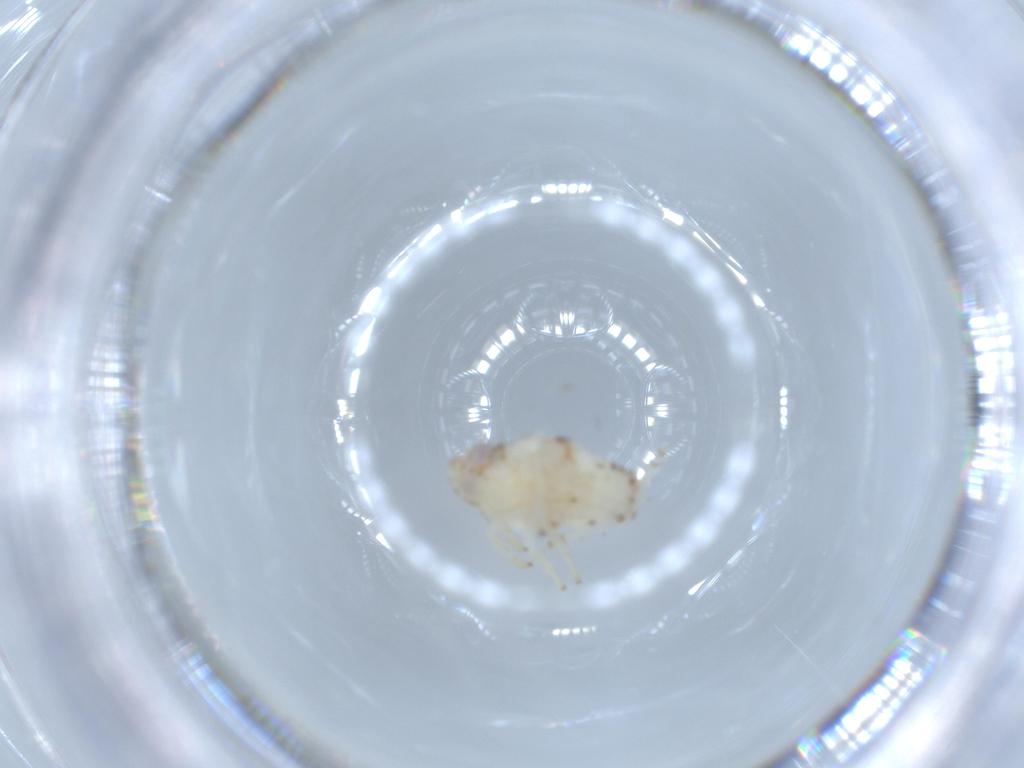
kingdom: Animalia
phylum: Arthropoda
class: Insecta
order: Hemiptera
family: Nogodinidae
